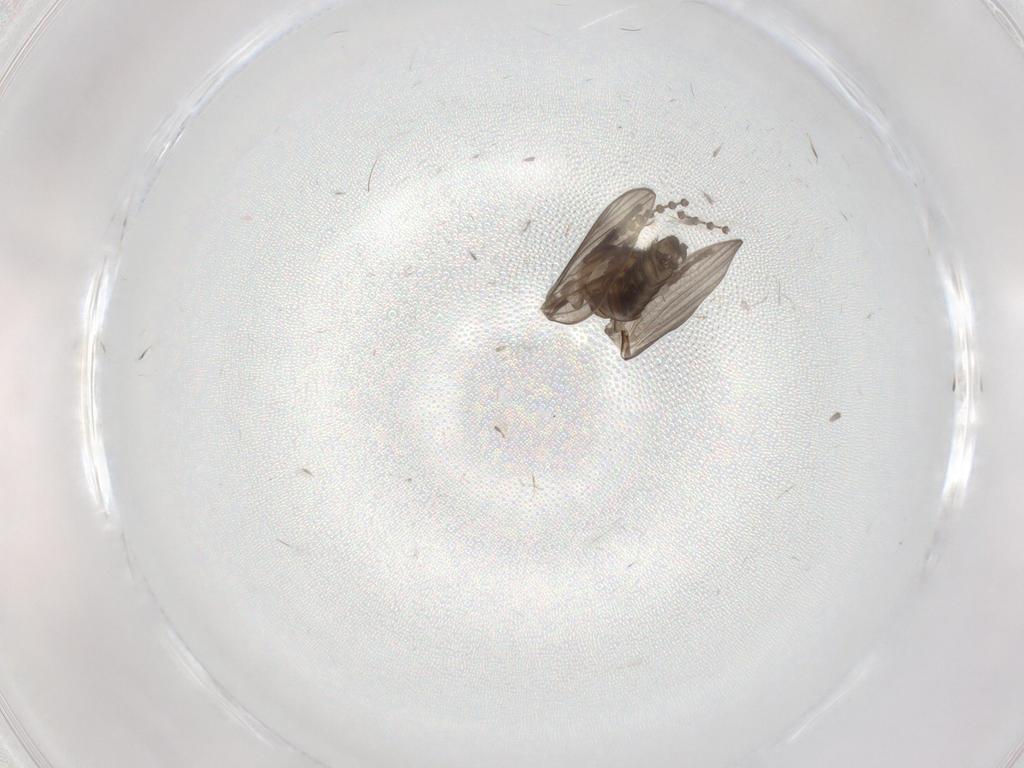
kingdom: Animalia
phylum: Arthropoda
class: Insecta
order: Diptera
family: Psychodidae
